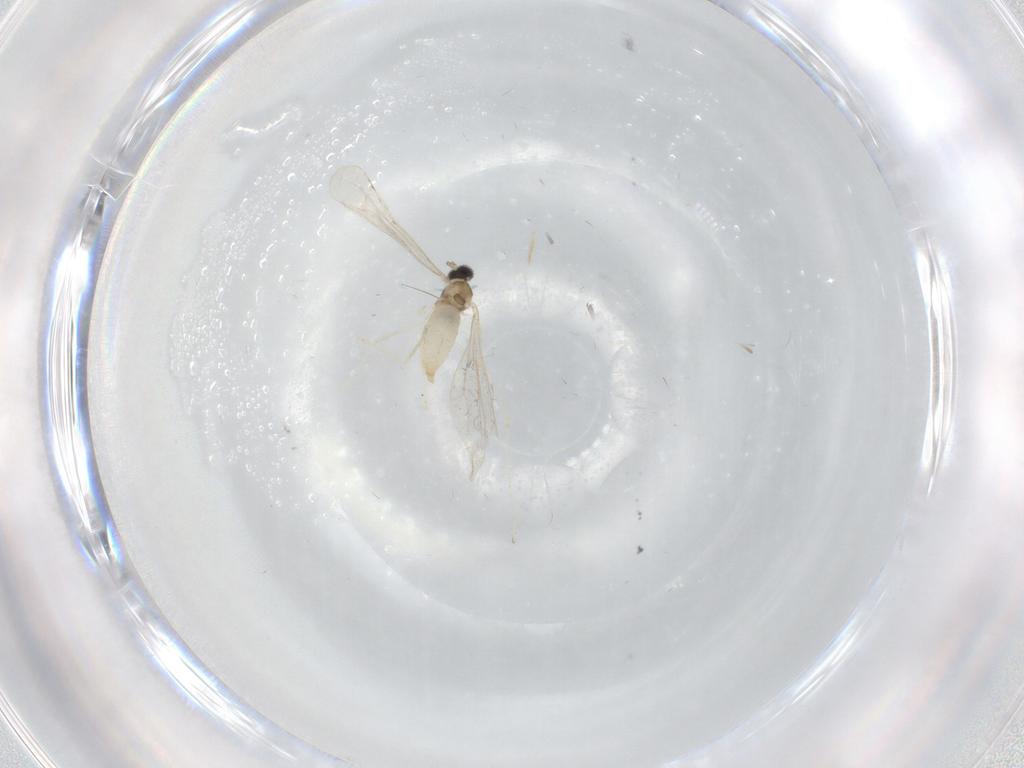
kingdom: Animalia
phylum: Arthropoda
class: Insecta
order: Diptera
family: Cecidomyiidae
